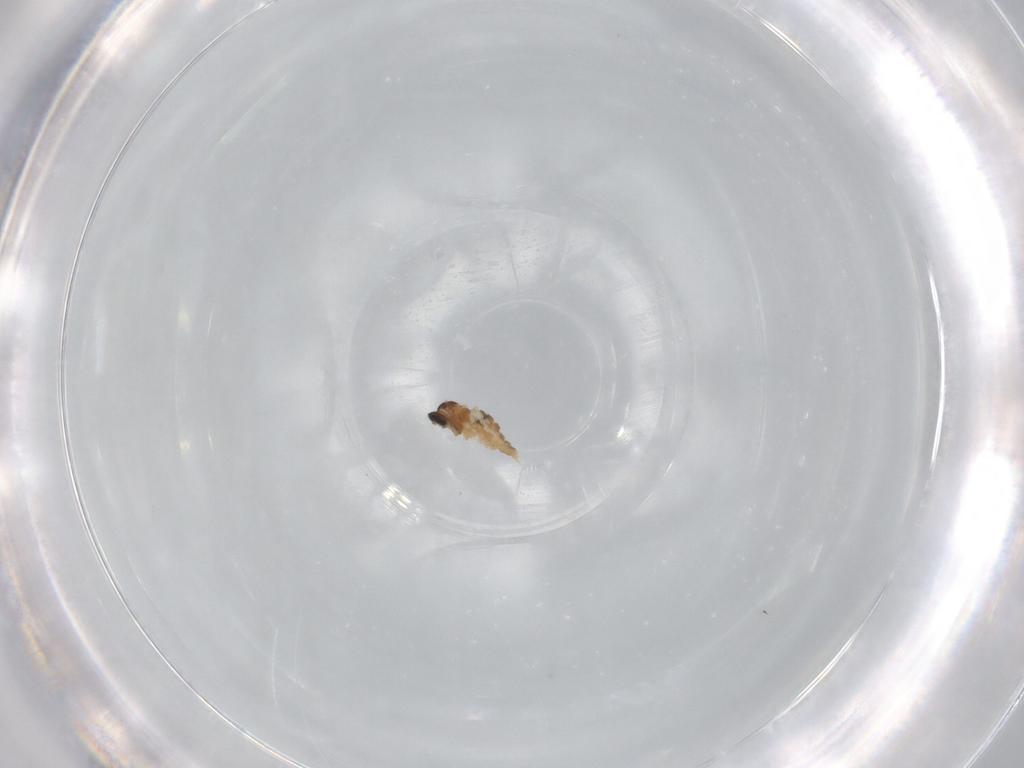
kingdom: Animalia
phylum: Arthropoda
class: Insecta
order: Diptera
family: Cecidomyiidae
